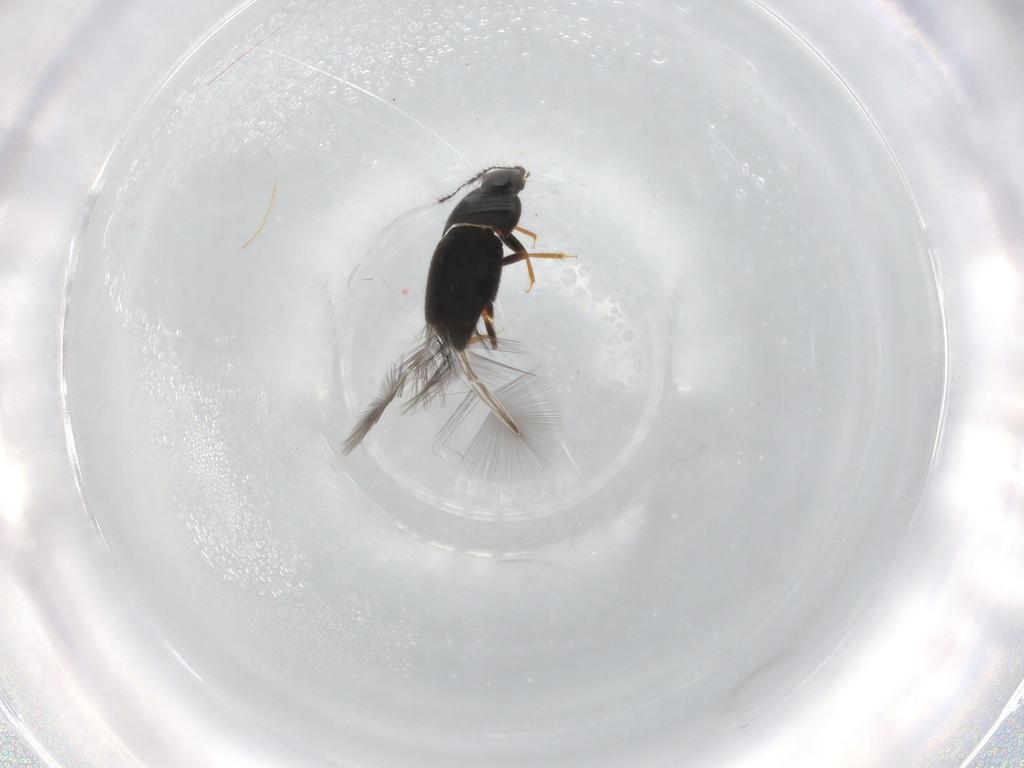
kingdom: Animalia
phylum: Arthropoda
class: Insecta
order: Coleoptera
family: Ptiliidae
